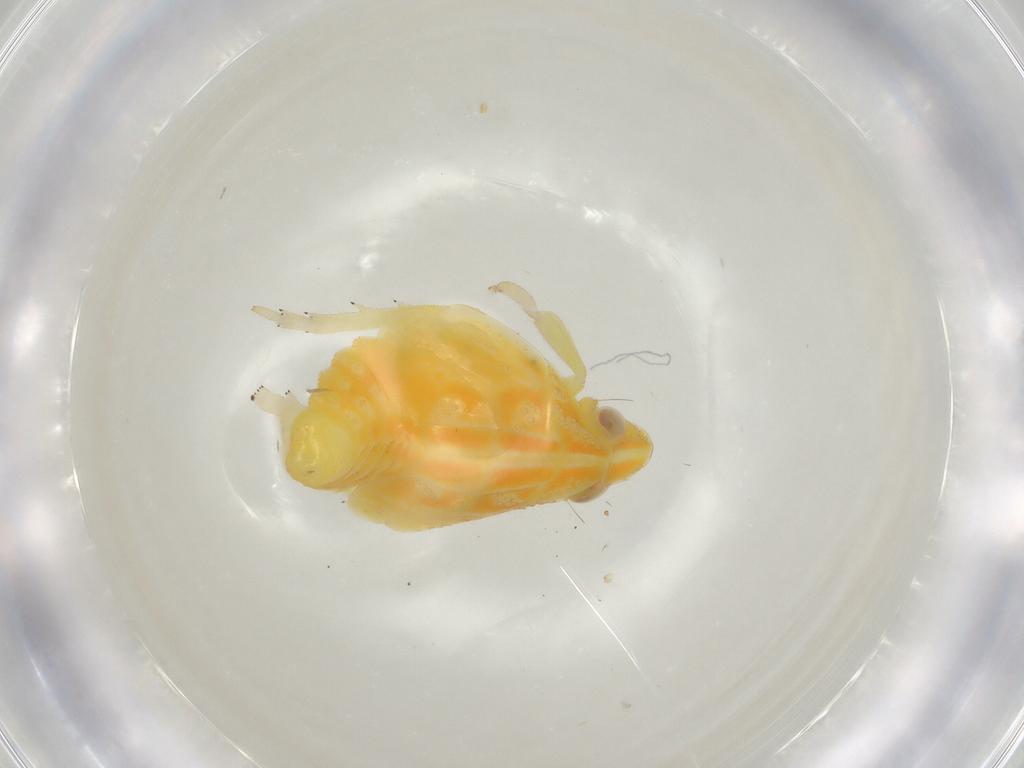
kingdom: Animalia
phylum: Arthropoda
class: Insecta
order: Hemiptera
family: Tropiduchidae
